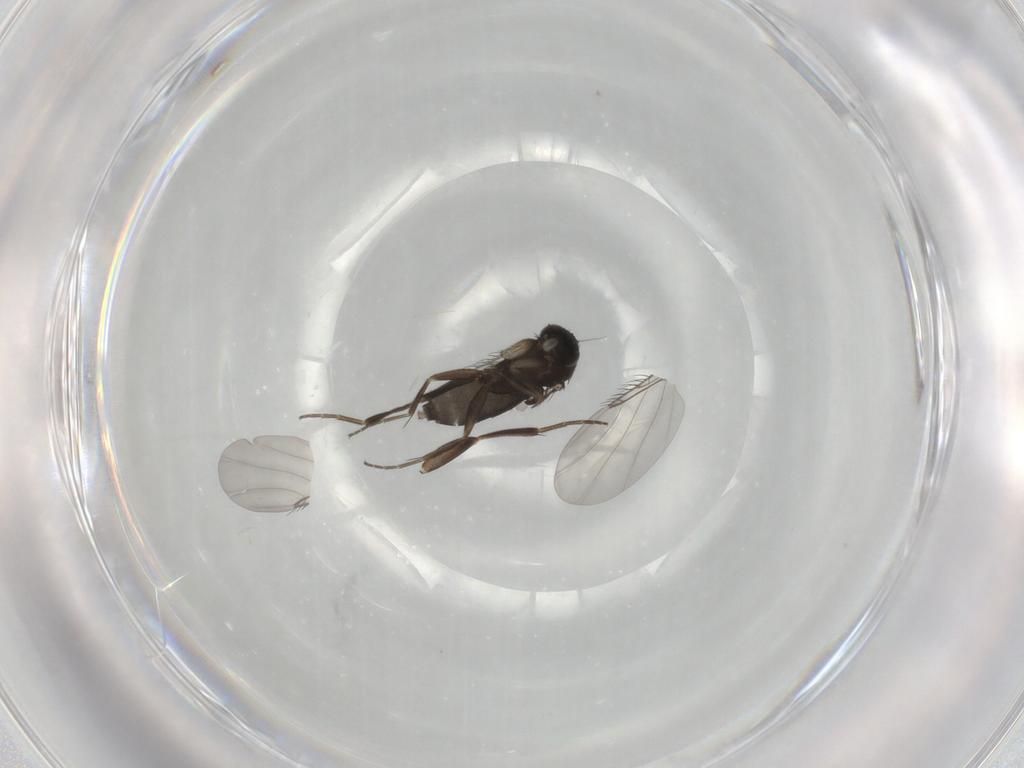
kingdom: Animalia
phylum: Arthropoda
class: Insecta
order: Diptera
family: Phoridae
